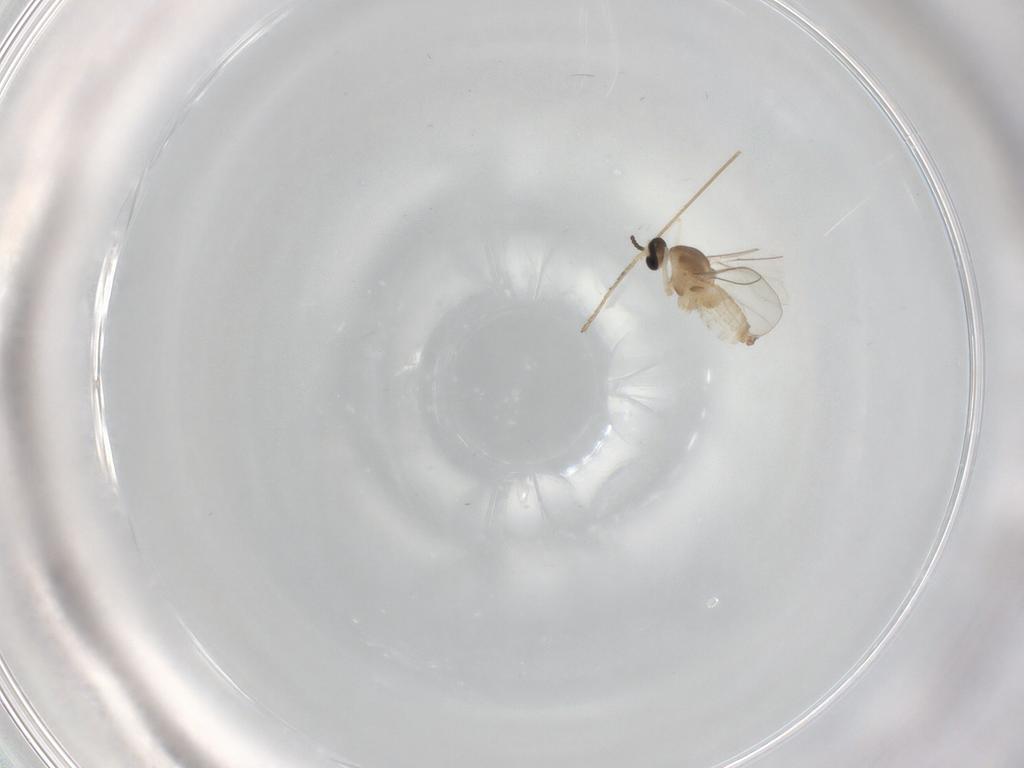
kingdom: Animalia
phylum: Arthropoda
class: Insecta
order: Diptera
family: Cecidomyiidae
